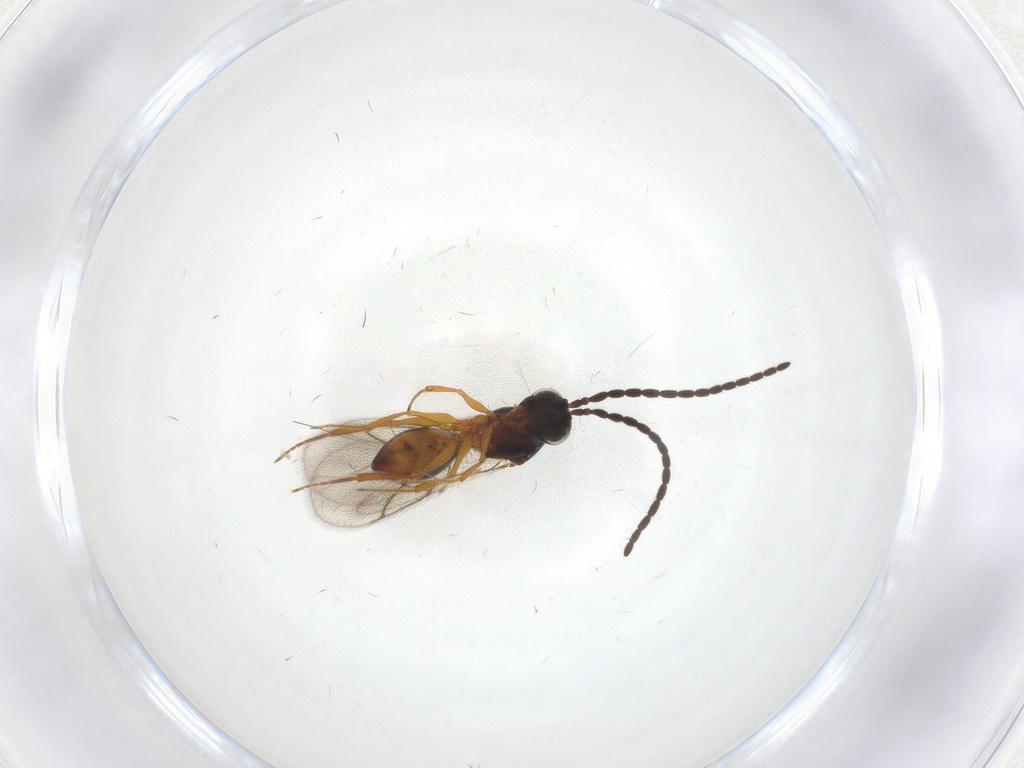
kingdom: Animalia
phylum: Arthropoda
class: Insecta
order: Hymenoptera
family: Figitidae
